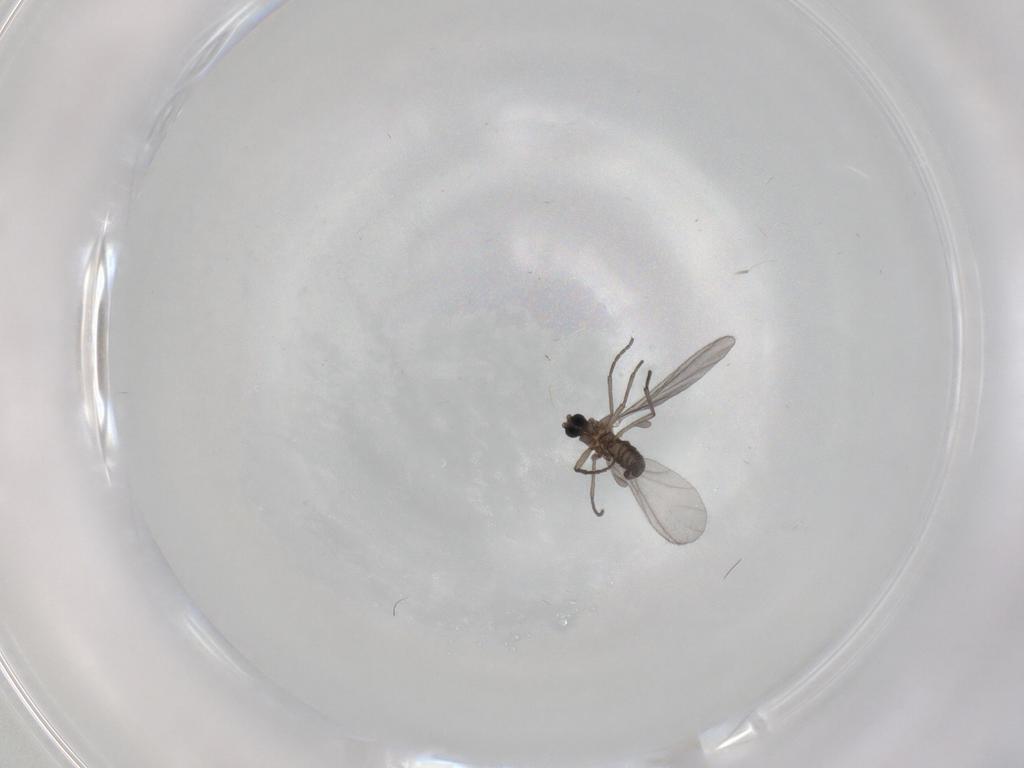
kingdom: Animalia
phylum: Arthropoda
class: Insecta
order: Diptera
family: Sciaridae
